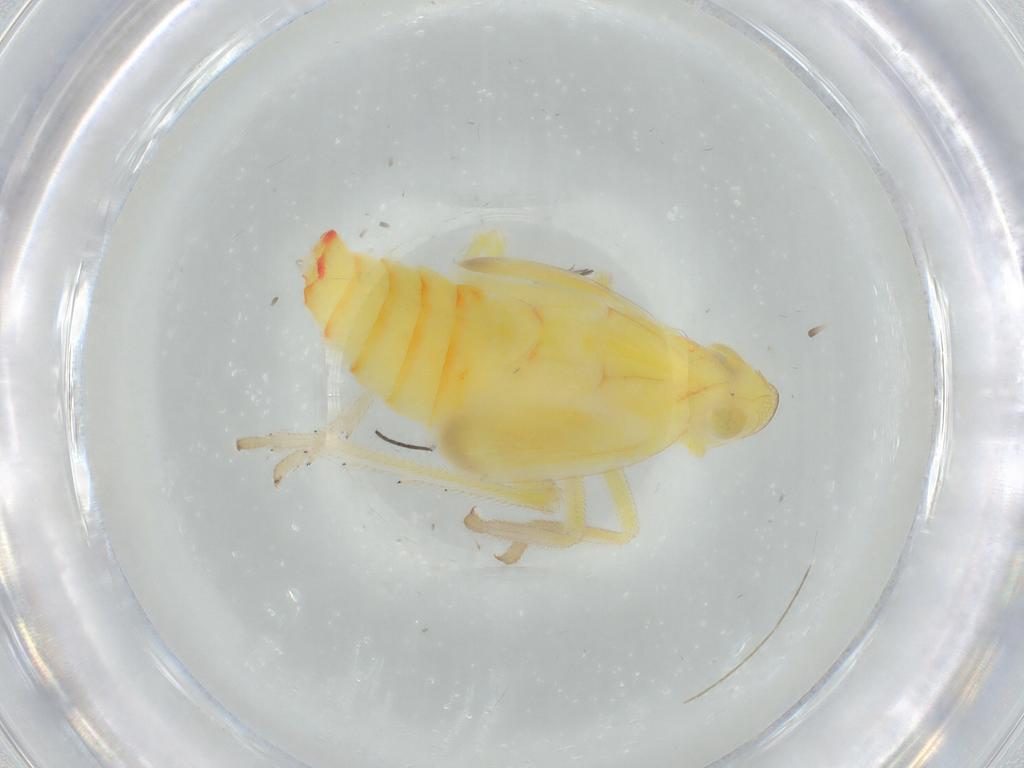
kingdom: Animalia
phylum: Arthropoda
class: Insecta
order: Hemiptera
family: Tropiduchidae
